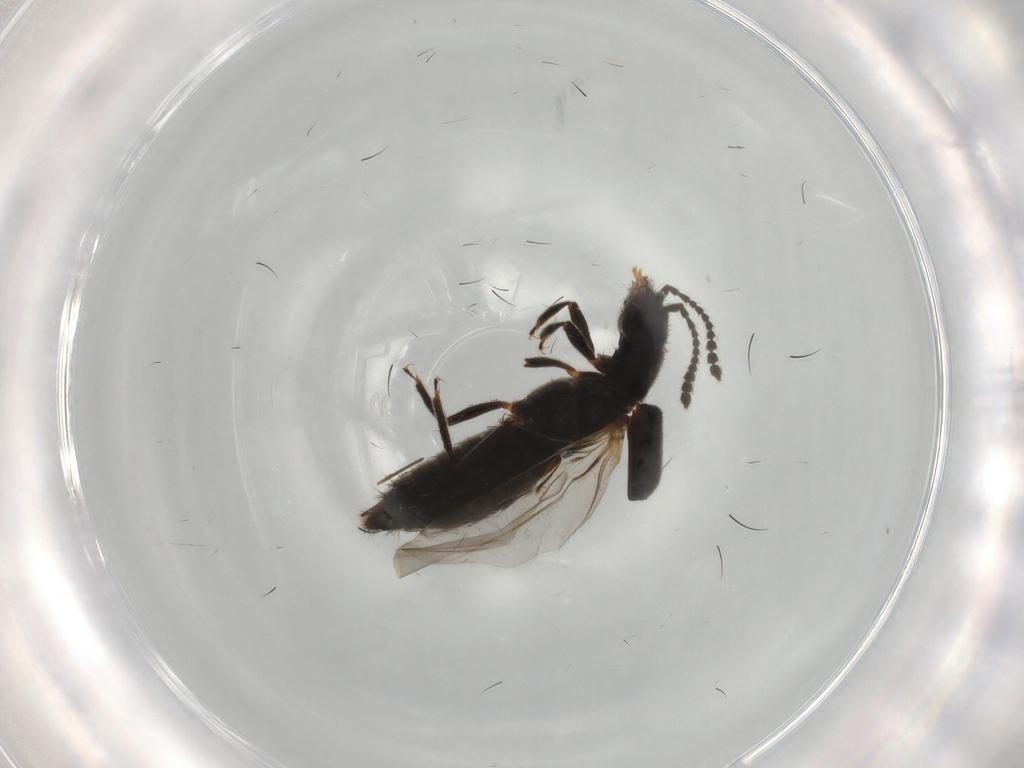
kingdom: Animalia
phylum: Arthropoda
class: Insecta
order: Coleoptera
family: Staphylinidae
